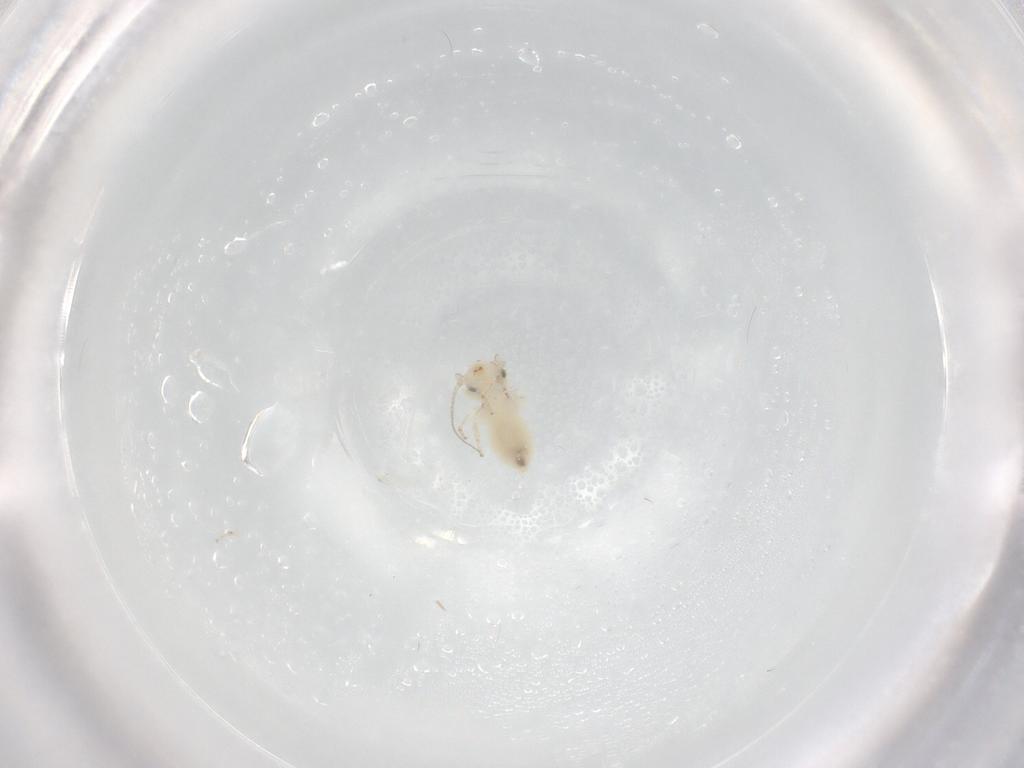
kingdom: Animalia
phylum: Arthropoda
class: Insecta
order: Psocodea
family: Lepidopsocidae
